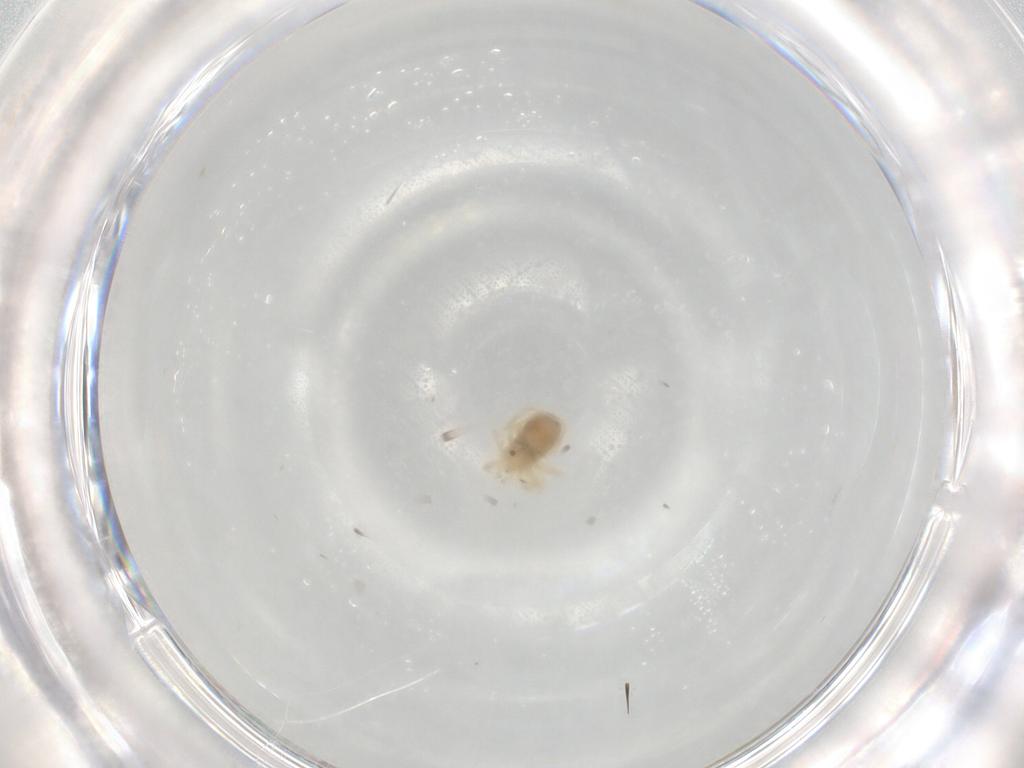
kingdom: Animalia
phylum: Arthropoda
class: Arachnida
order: Trombidiformes
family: Anystidae
